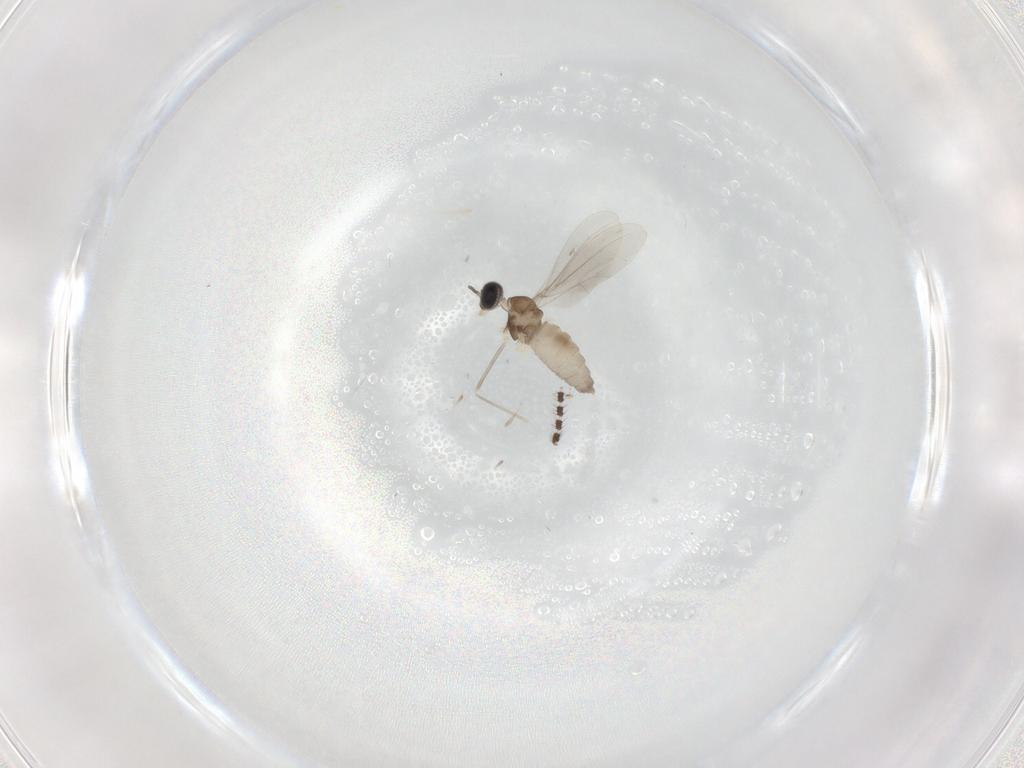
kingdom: Animalia
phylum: Arthropoda
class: Insecta
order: Diptera
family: Cecidomyiidae
